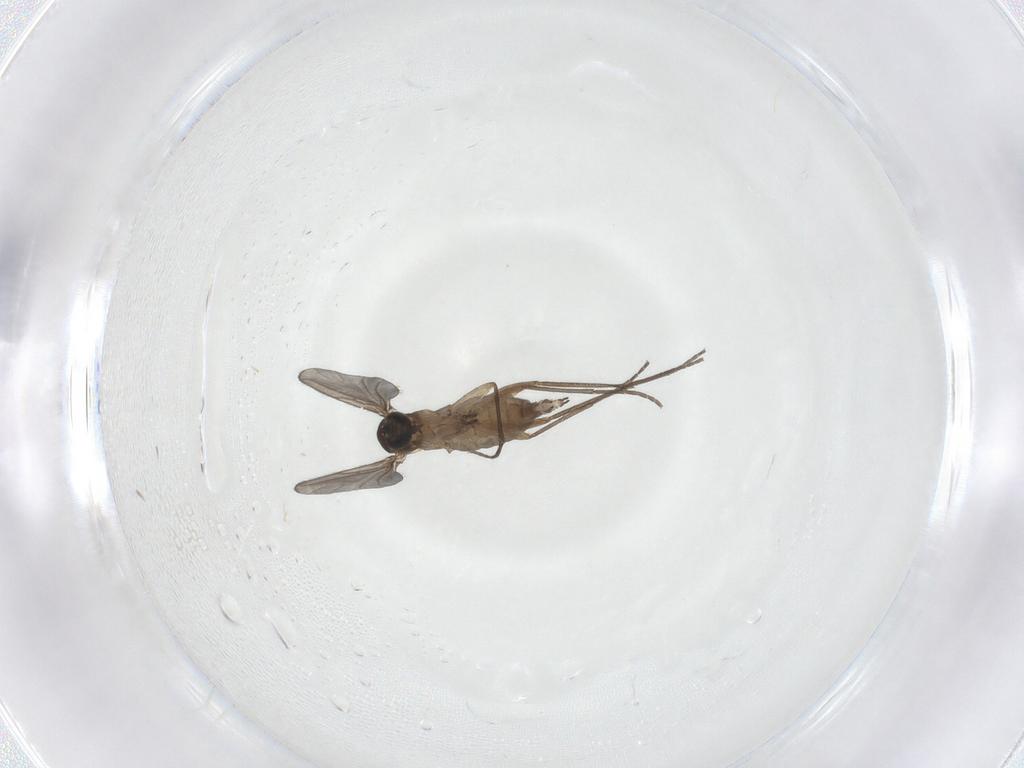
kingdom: Animalia
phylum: Arthropoda
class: Insecta
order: Diptera
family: Sciaridae
